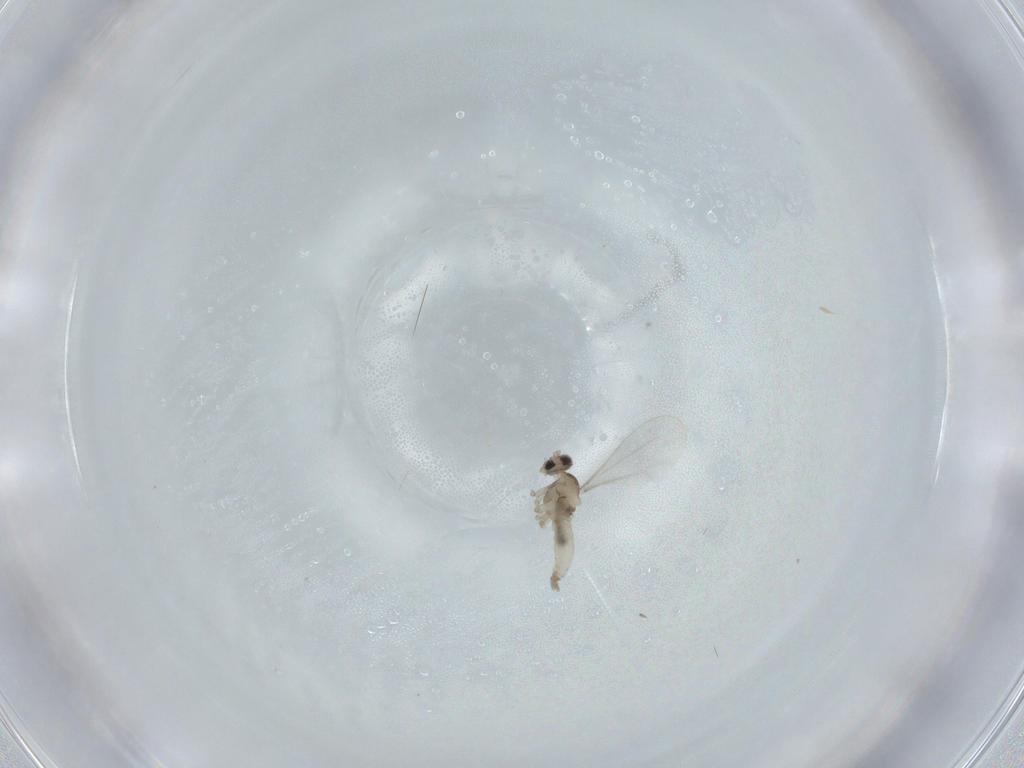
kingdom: Animalia
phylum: Arthropoda
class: Insecta
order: Diptera
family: Cecidomyiidae
